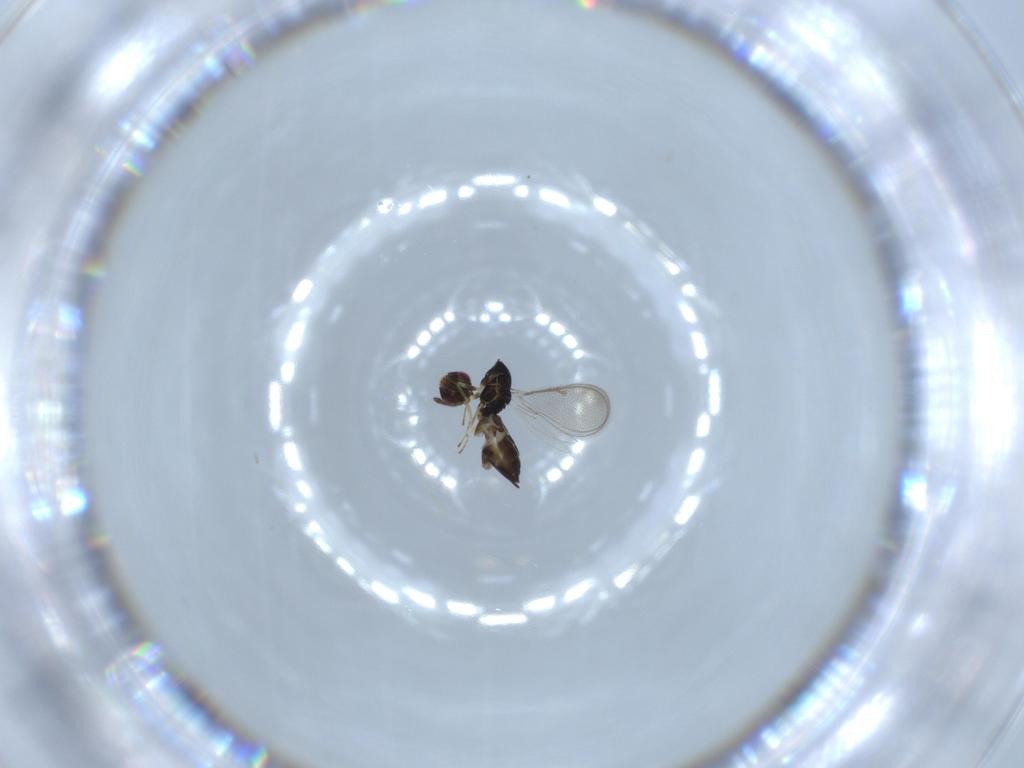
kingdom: Animalia
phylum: Arthropoda
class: Insecta
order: Hymenoptera
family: Eulophidae
